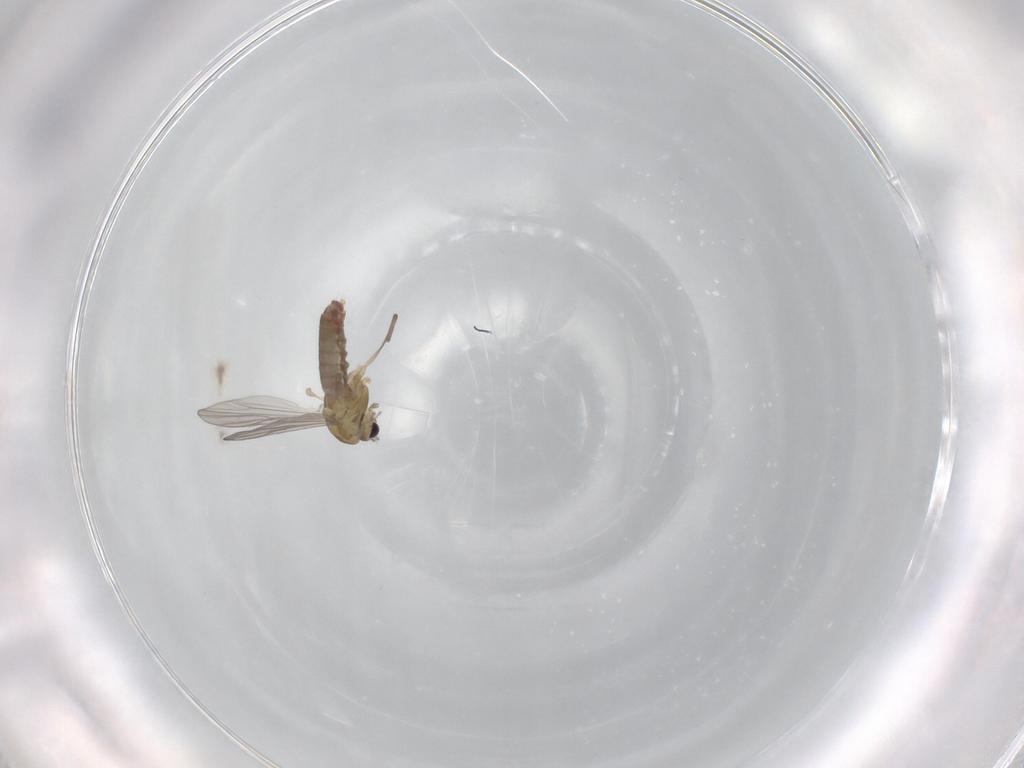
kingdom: Animalia
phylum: Arthropoda
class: Insecta
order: Diptera
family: Chironomidae
